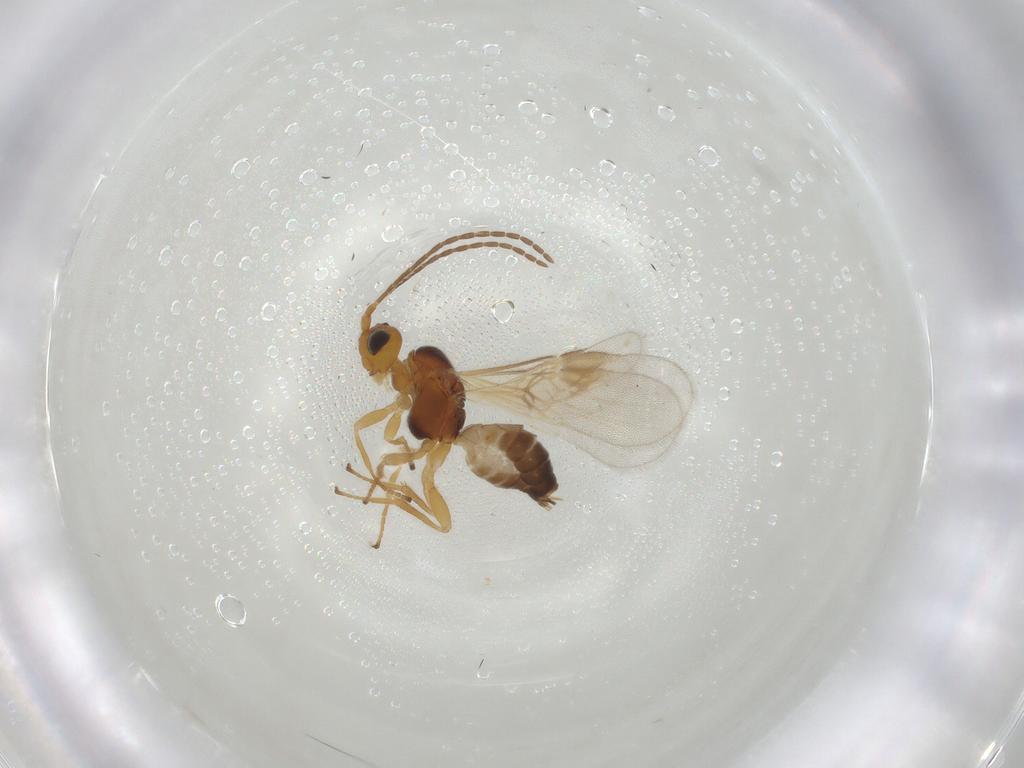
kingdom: Animalia
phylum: Arthropoda
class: Insecta
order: Hymenoptera
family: Braconidae
